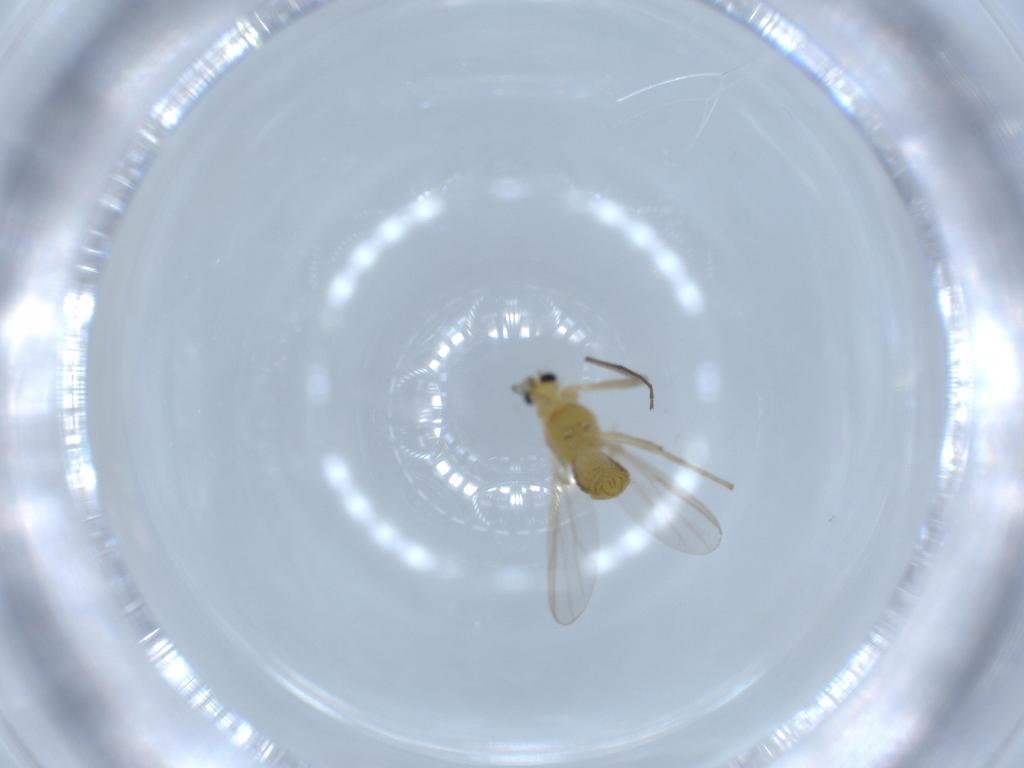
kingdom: Animalia
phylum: Arthropoda
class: Insecta
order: Diptera
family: Chironomidae
